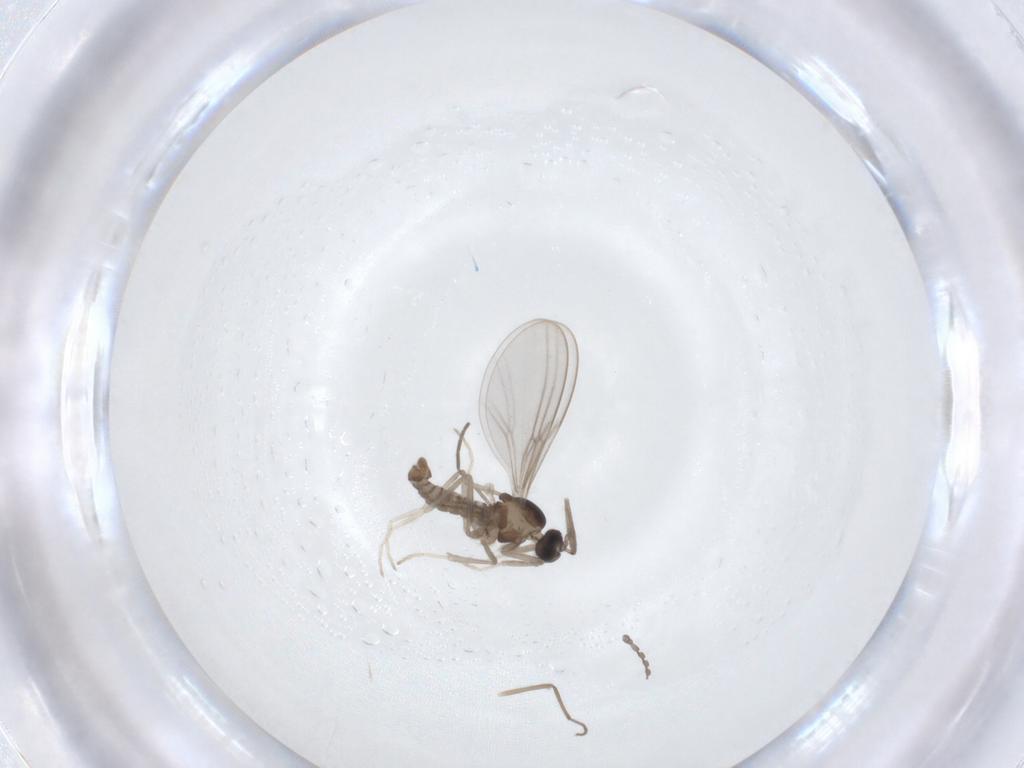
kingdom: Animalia
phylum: Arthropoda
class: Insecta
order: Diptera
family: Cecidomyiidae
